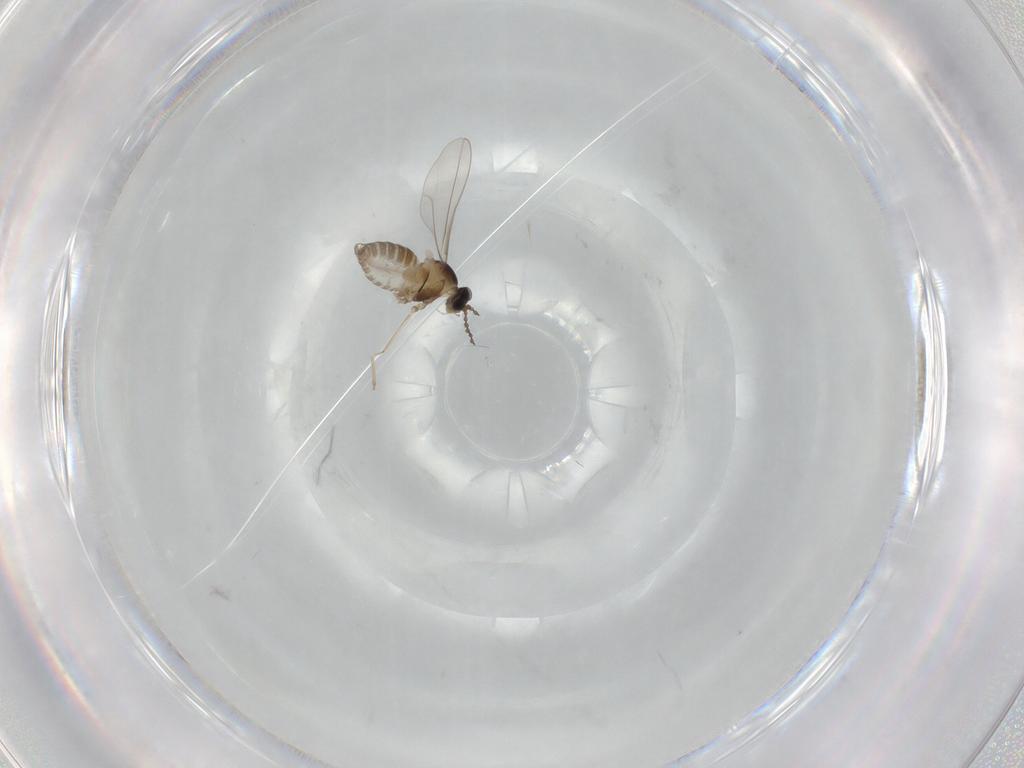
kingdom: Animalia
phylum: Arthropoda
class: Insecta
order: Diptera
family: Cecidomyiidae
